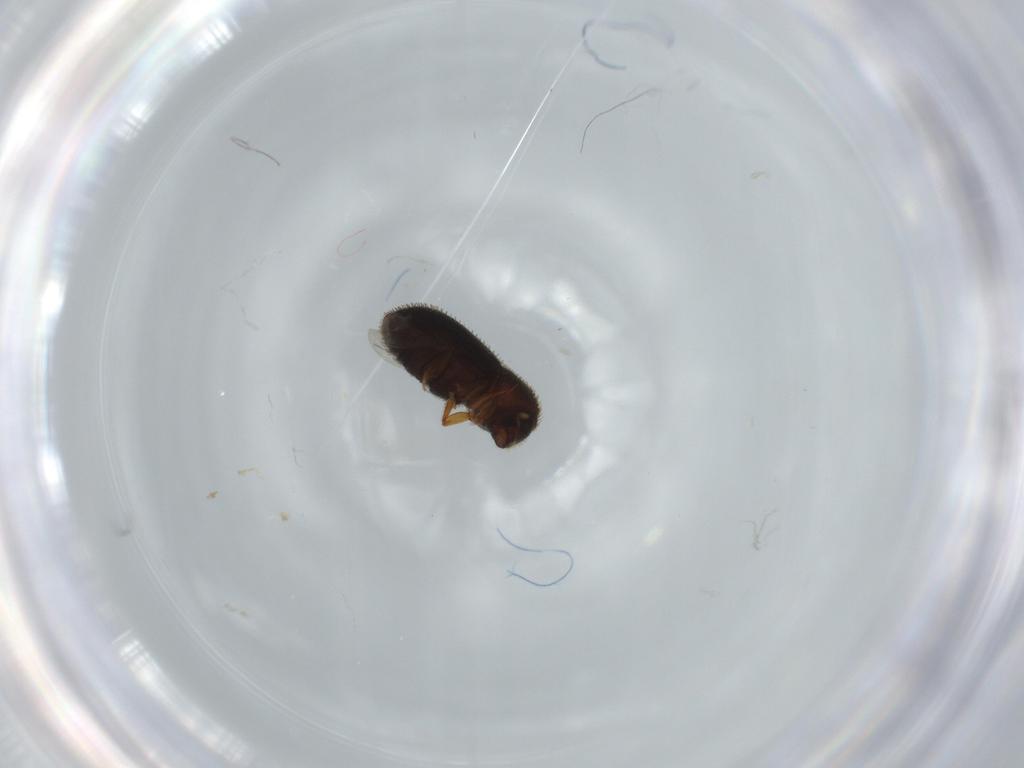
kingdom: Animalia
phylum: Arthropoda
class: Insecta
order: Coleoptera
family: Curculionidae
